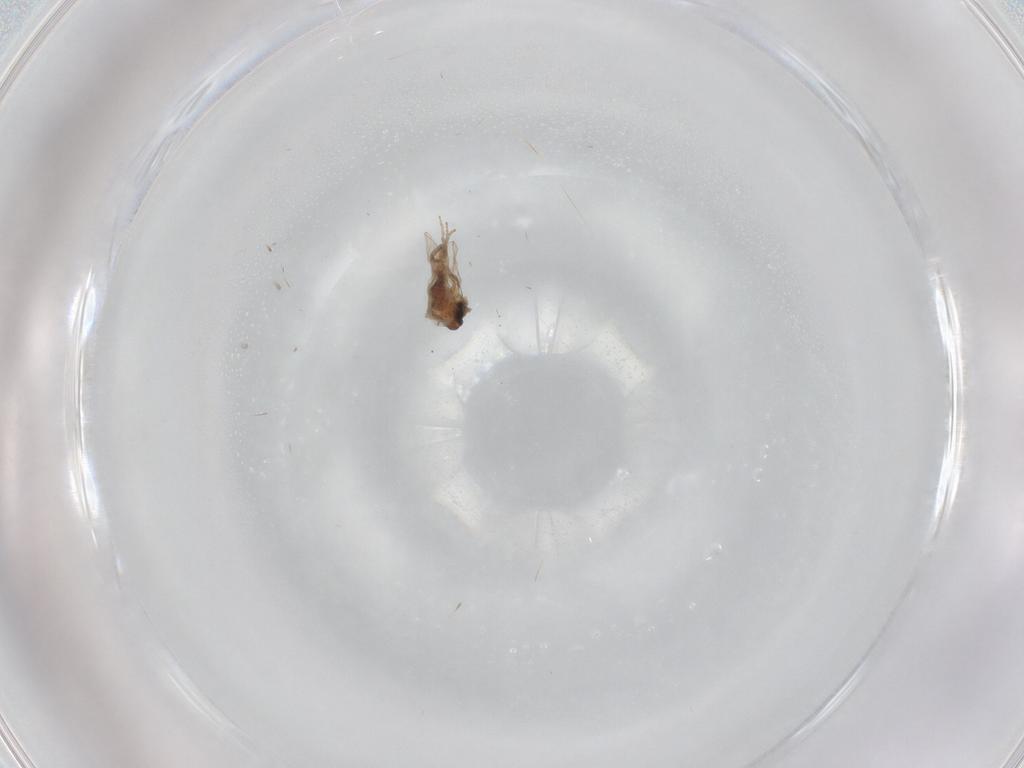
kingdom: Animalia
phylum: Arthropoda
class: Insecta
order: Diptera
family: Psychodidae
